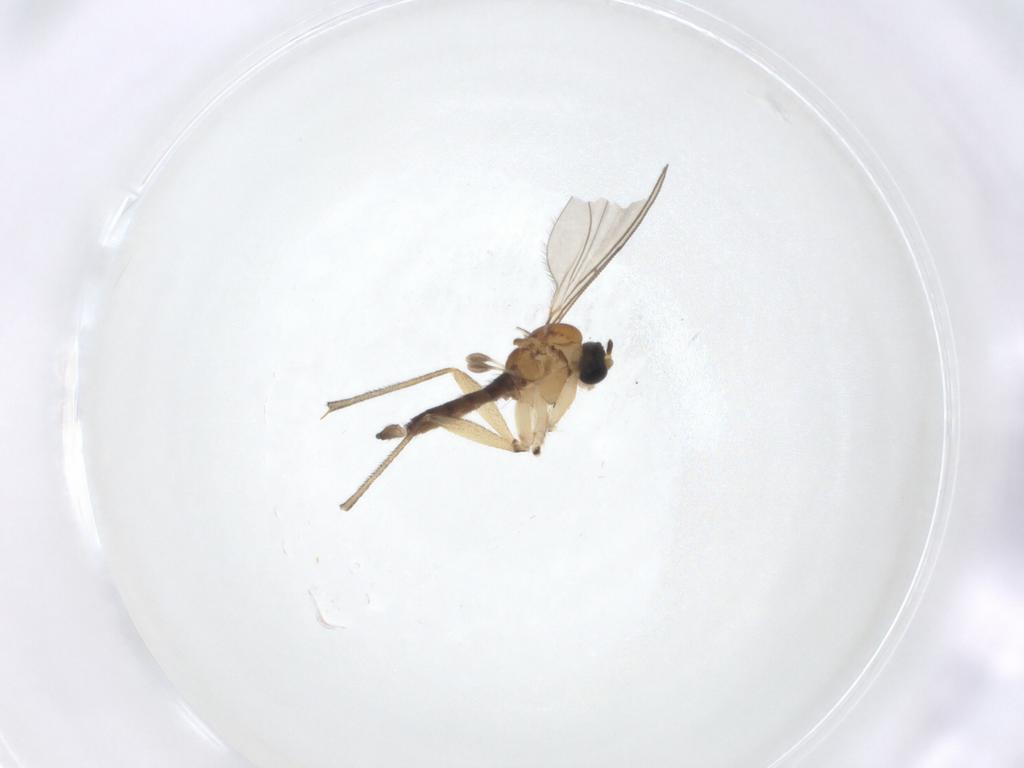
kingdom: Animalia
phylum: Arthropoda
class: Insecta
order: Diptera
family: Sciaridae
